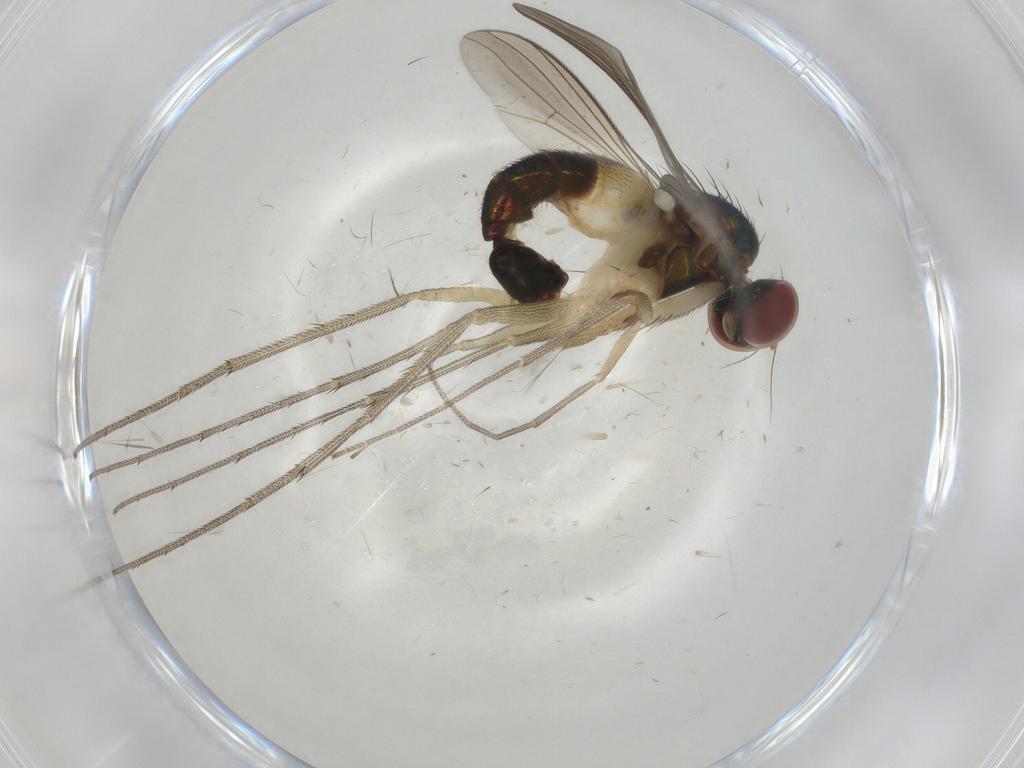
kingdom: Animalia
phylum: Arthropoda
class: Insecta
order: Diptera
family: Dolichopodidae
